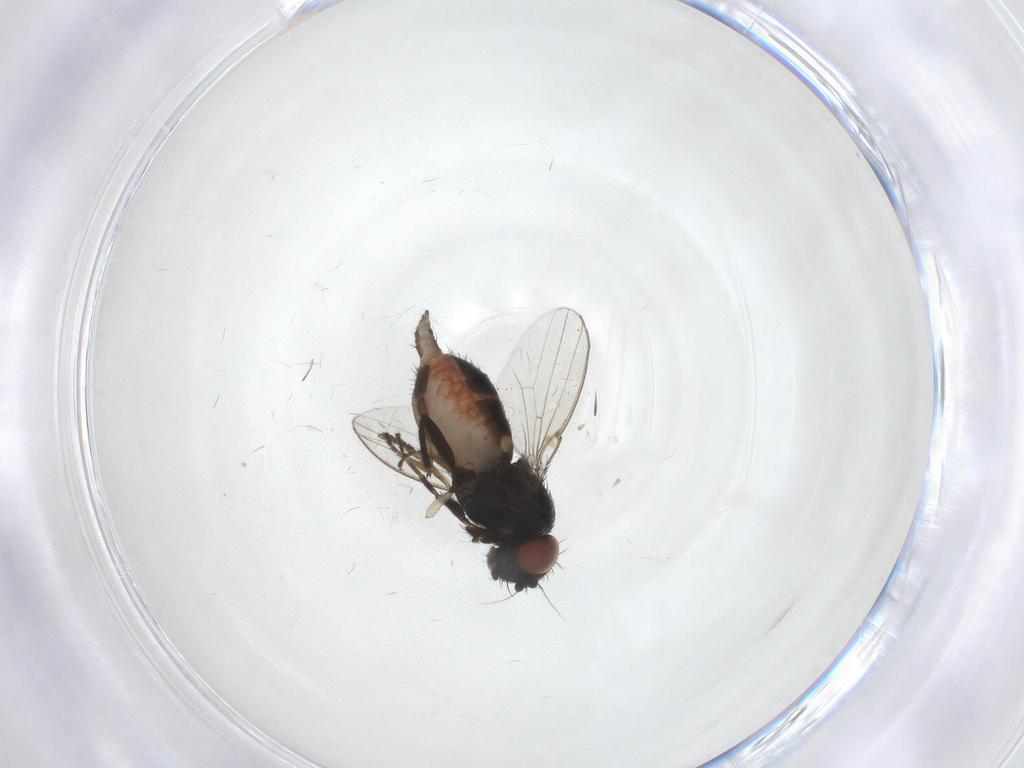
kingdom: Animalia
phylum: Arthropoda
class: Insecta
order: Diptera
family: Milichiidae
